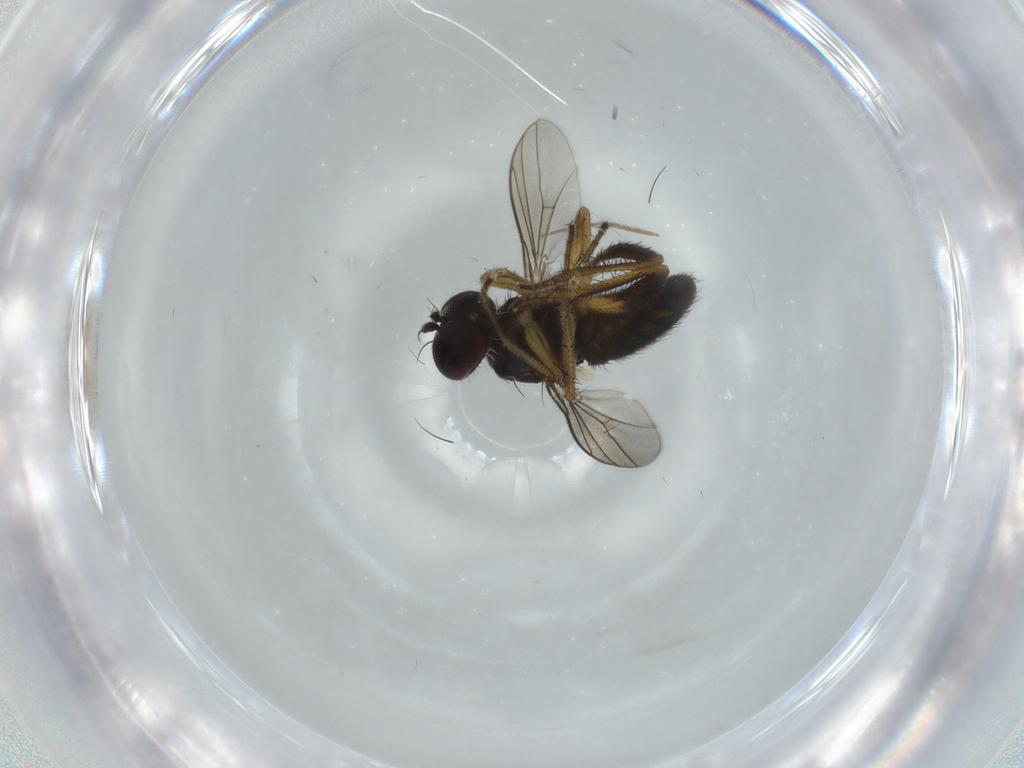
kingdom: Animalia
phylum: Arthropoda
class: Insecta
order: Diptera
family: Dolichopodidae
